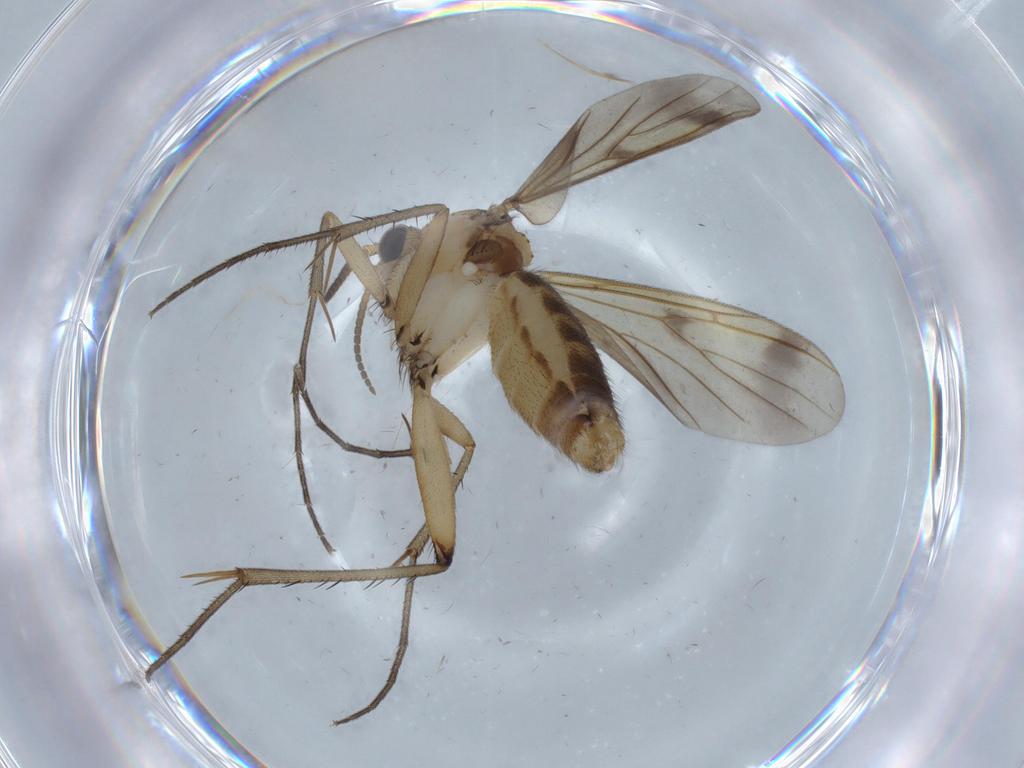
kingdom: Animalia
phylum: Arthropoda
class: Insecta
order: Diptera
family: Mycetophilidae
